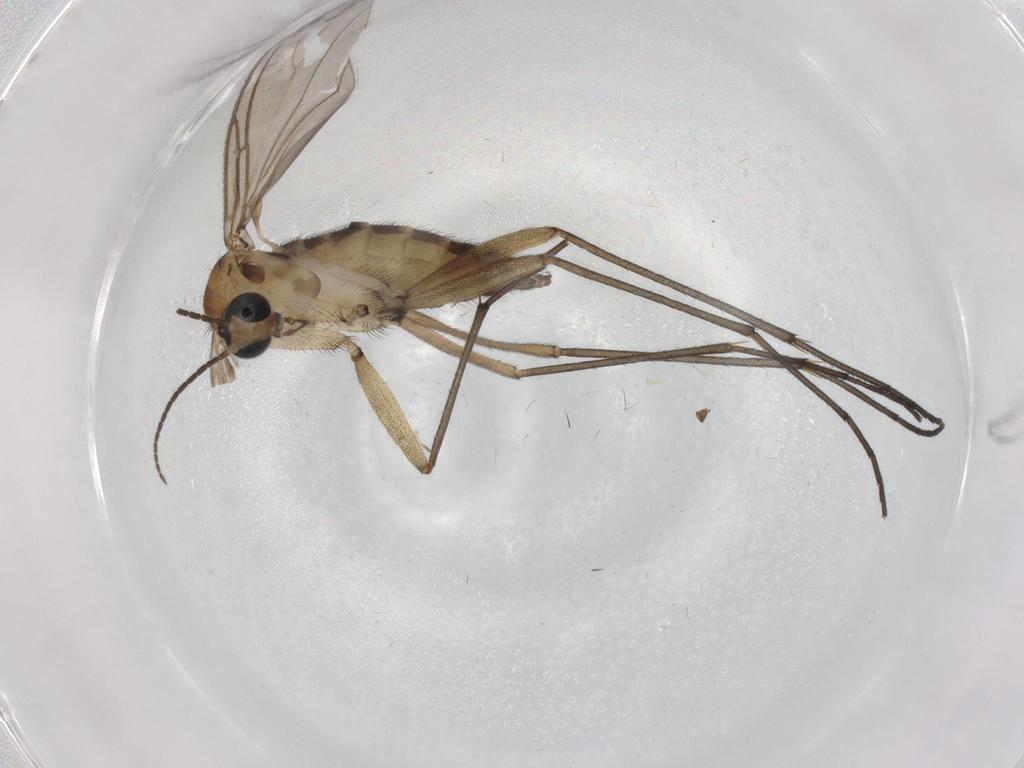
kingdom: Animalia
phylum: Arthropoda
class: Insecta
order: Diptera
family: Sciaridae
